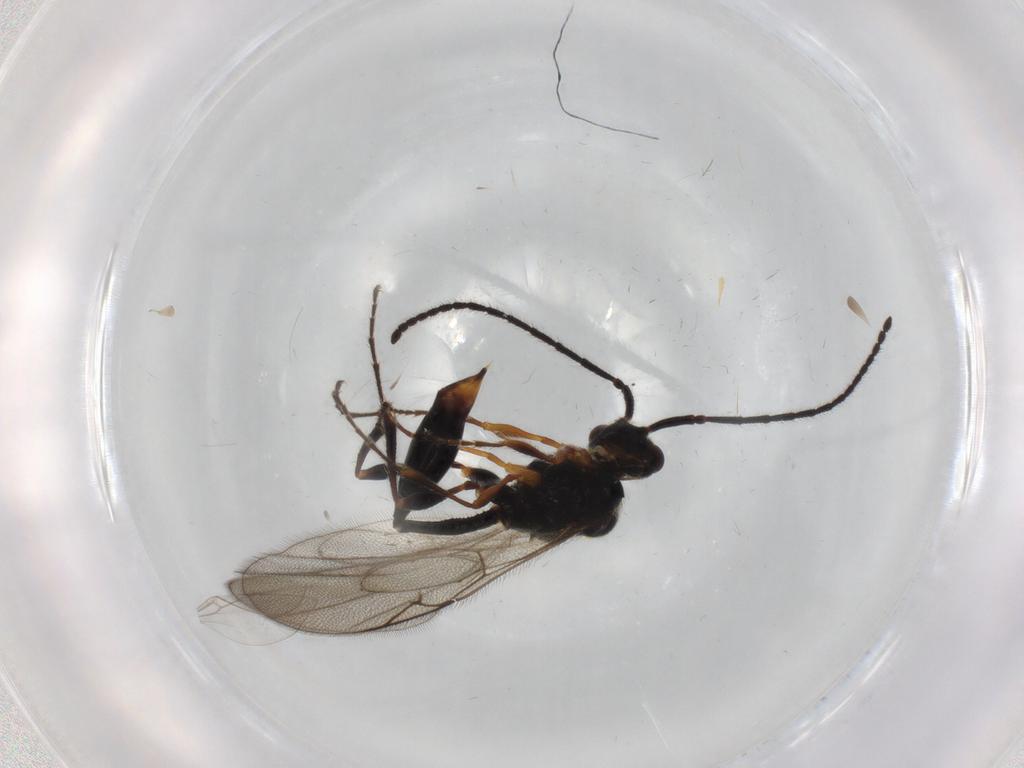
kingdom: Animalia
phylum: Arthropoda
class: Insecta
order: Hymenoptera
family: Diapriidae
